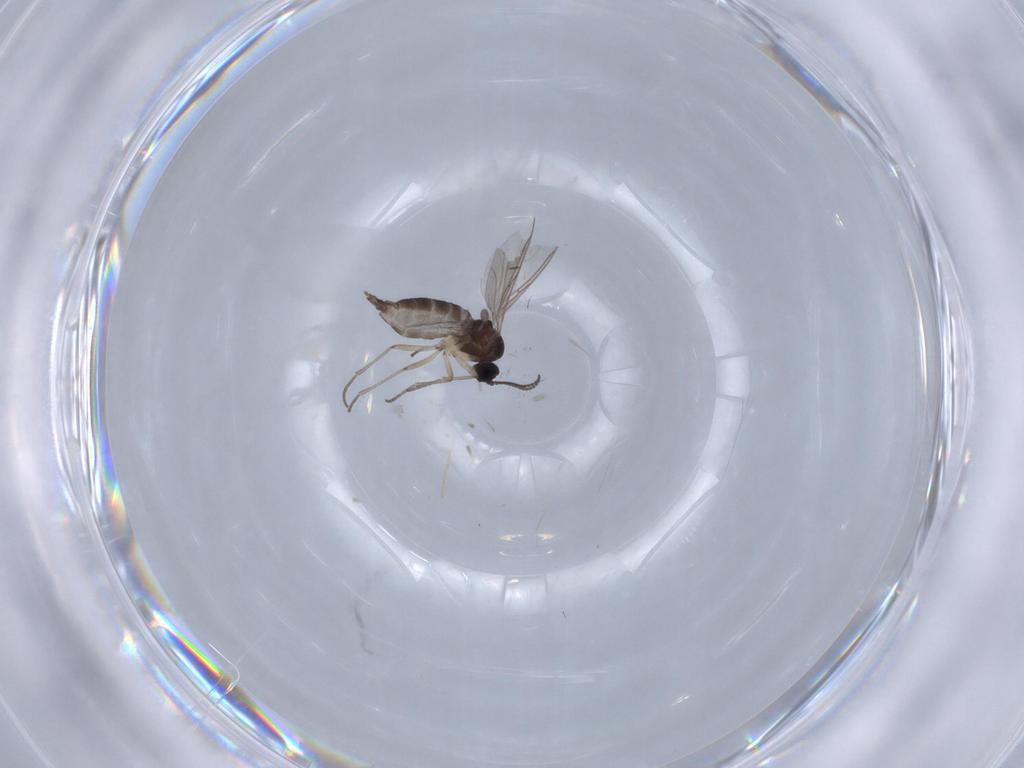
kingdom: Animalia
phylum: Arthropoda
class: Insecta
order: Diptera
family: Sciaridae
